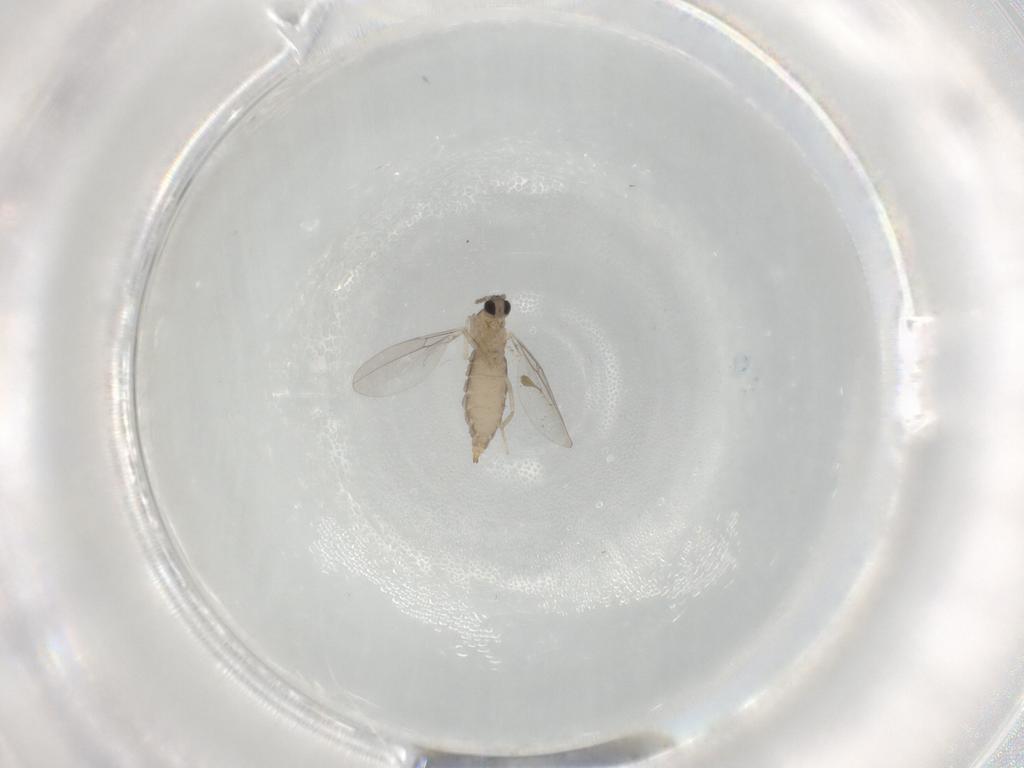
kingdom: Animalia
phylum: Arthropoda
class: Insecta
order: Diptera
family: Cecidomyiidae
